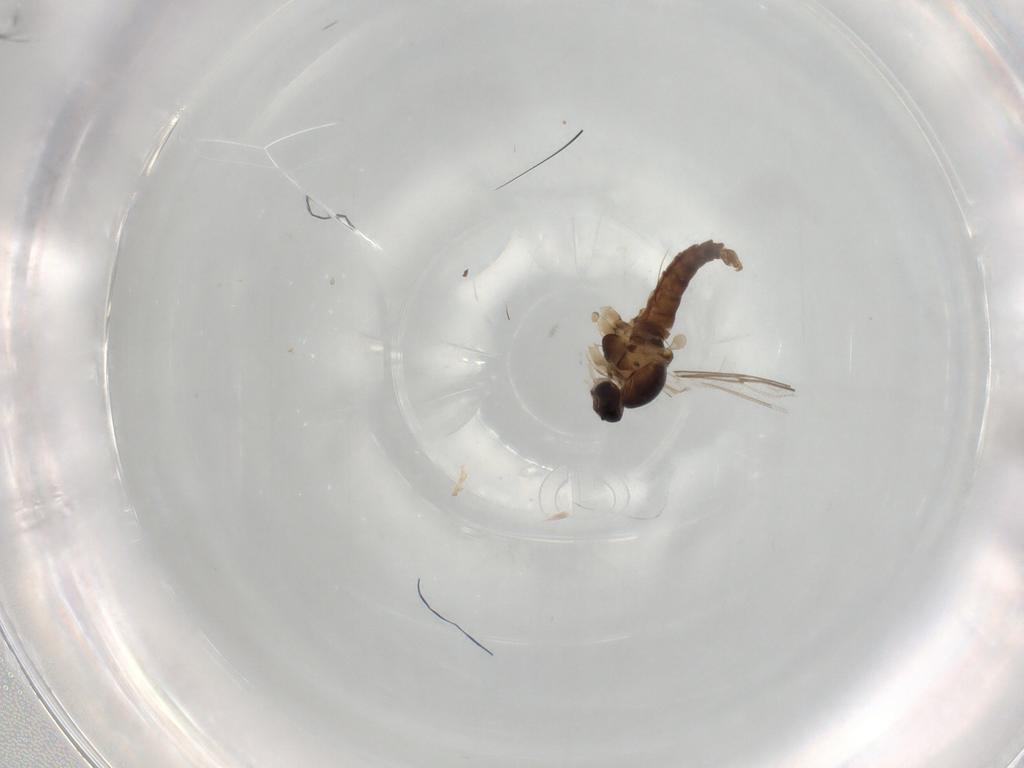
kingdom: Animalia
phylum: Arthropoda
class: Insecta
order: Diptera
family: Cecidomyiidae
